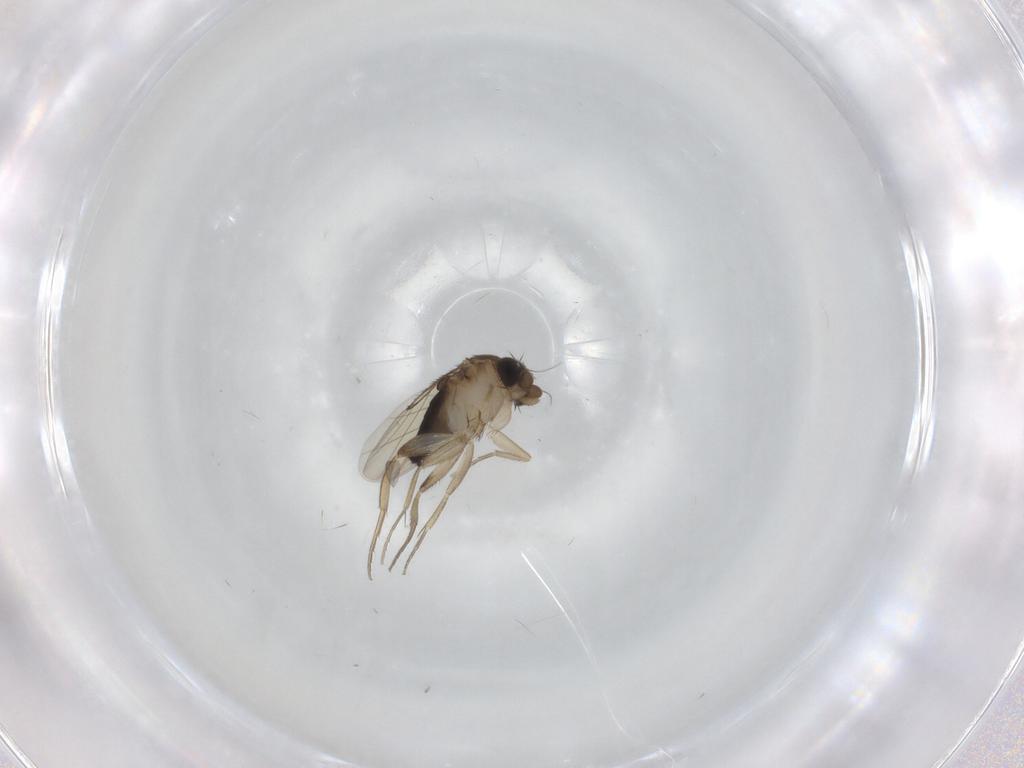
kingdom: Animalia
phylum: Arthropoda
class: Insecta
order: Diptera
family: Phoridae
